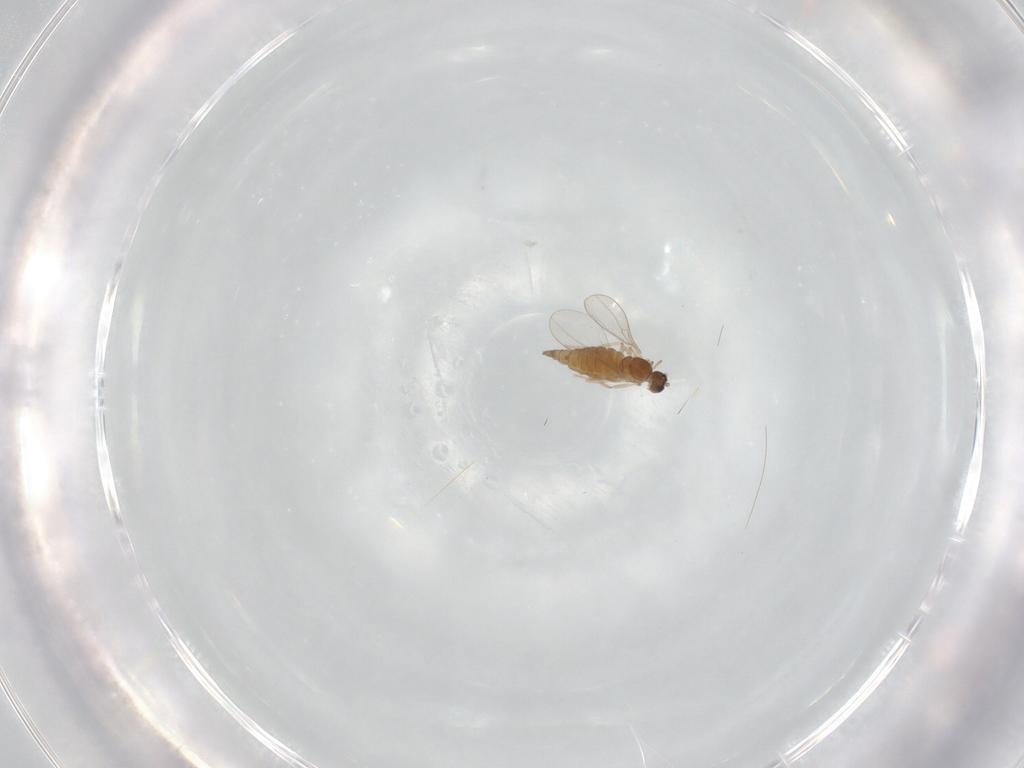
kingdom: Animalia
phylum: Arthropoda
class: Insecta
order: Diptera
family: Cecidomyiidae
